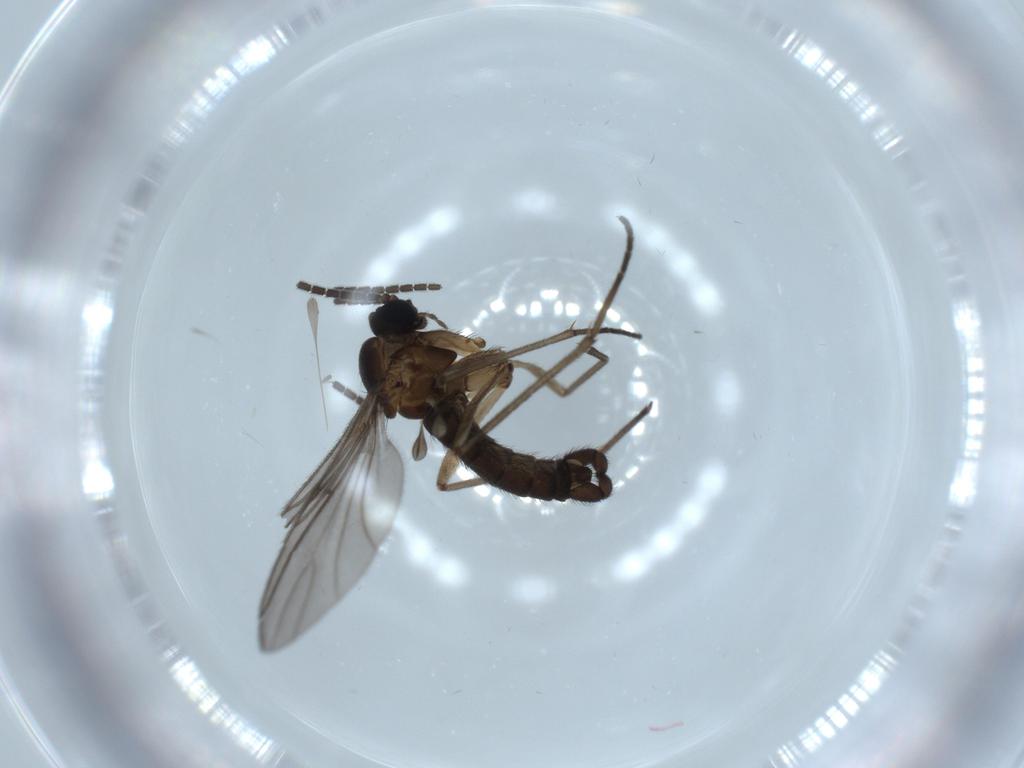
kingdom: Animalia
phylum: Arthropoda
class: Insecta
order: Diptera
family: Sciaridae
